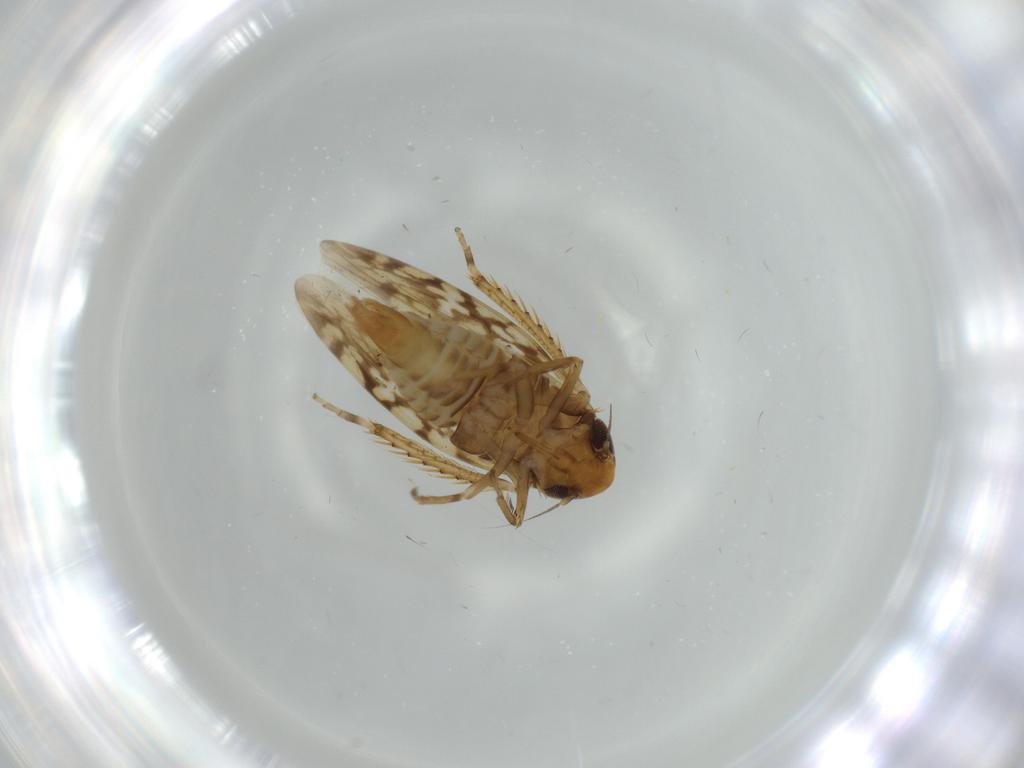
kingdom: Animalia
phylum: Arthropoda
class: Insecta
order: Hemiptera
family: Cicadellidae
